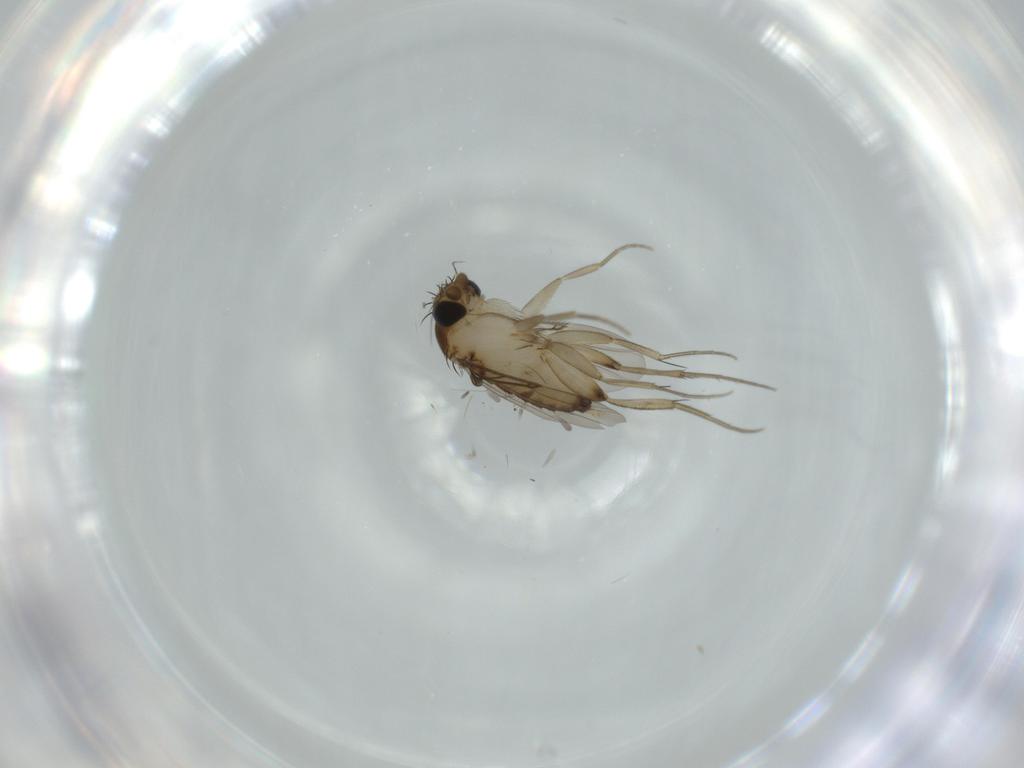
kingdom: Animalia
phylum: Arthropoda
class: Insecta
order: Diptera
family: Phoridae
